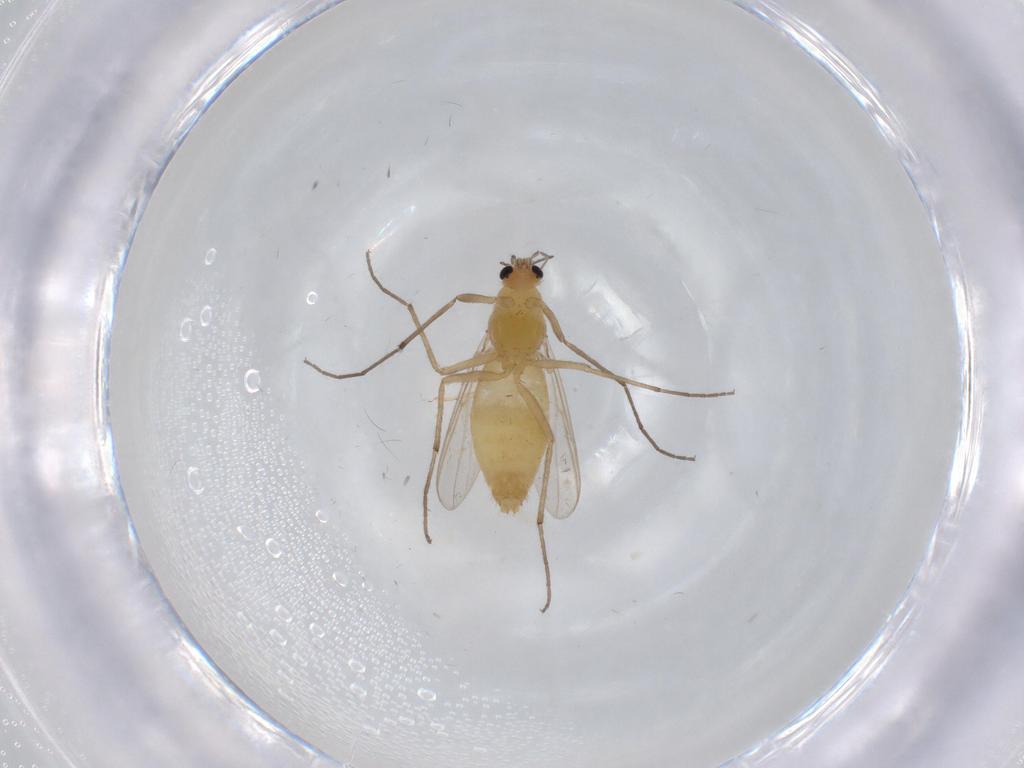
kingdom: Animalia
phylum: Arthropoda
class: Insecta
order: Diptera
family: Chironomidae
